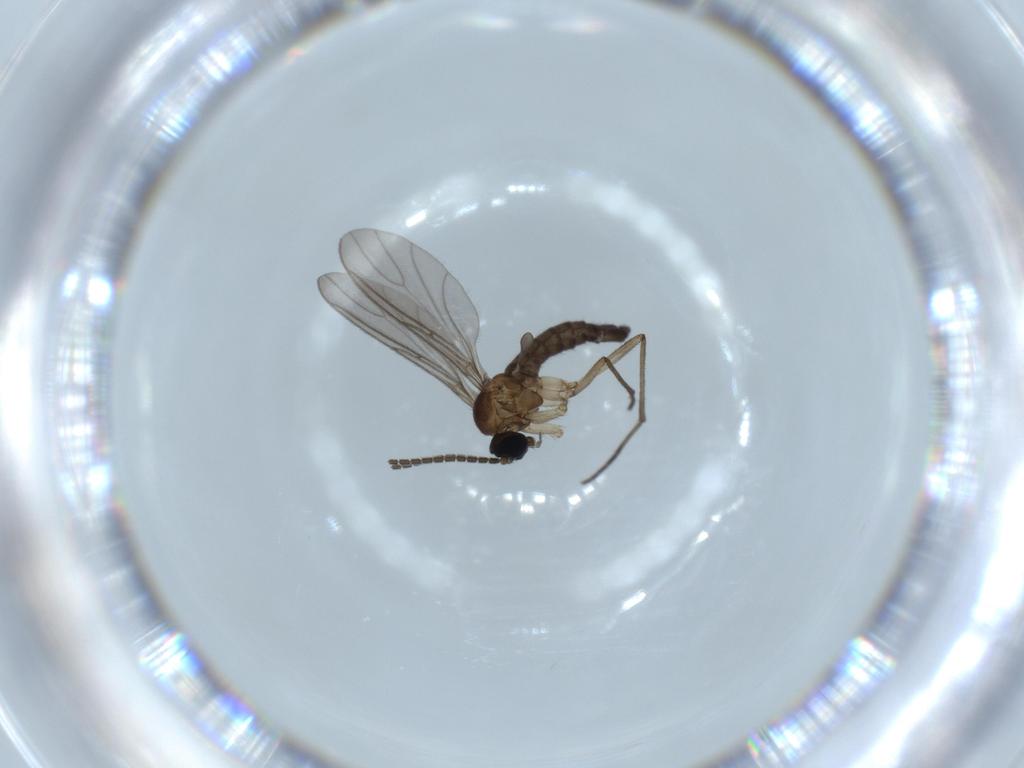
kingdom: Animalia
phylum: Arthropoda
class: Insecta
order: Diptera
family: Sciaridae
